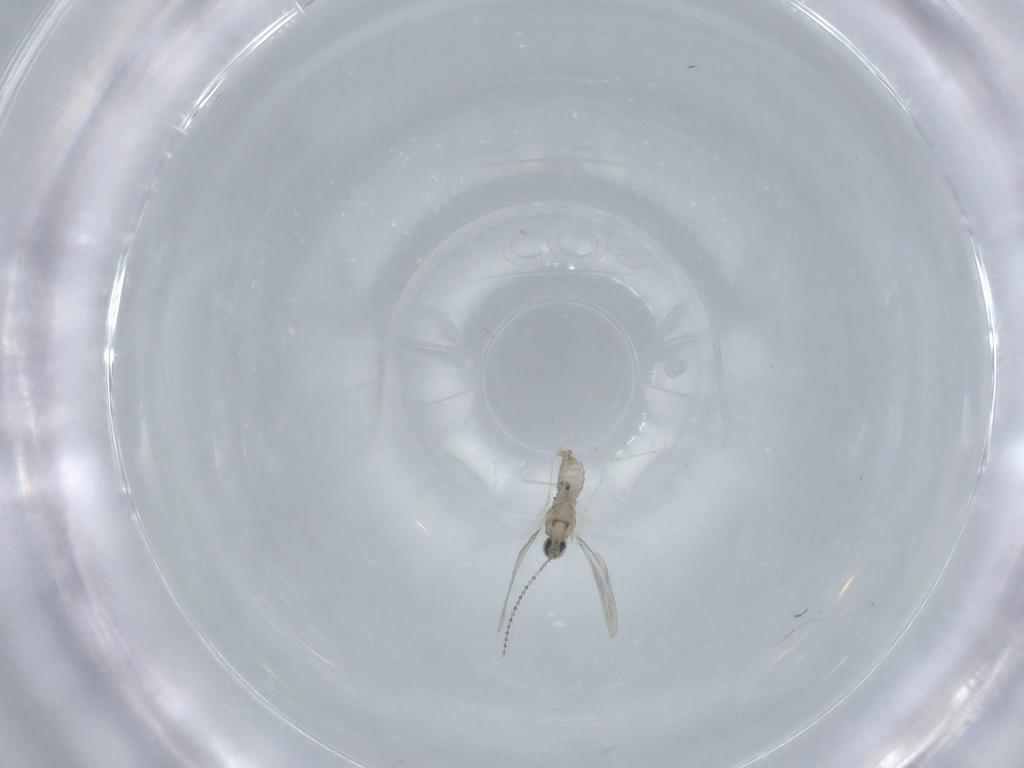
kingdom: Animalia
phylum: Arthropoda
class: Insecta
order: Diptera
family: Cecidomyiidae
